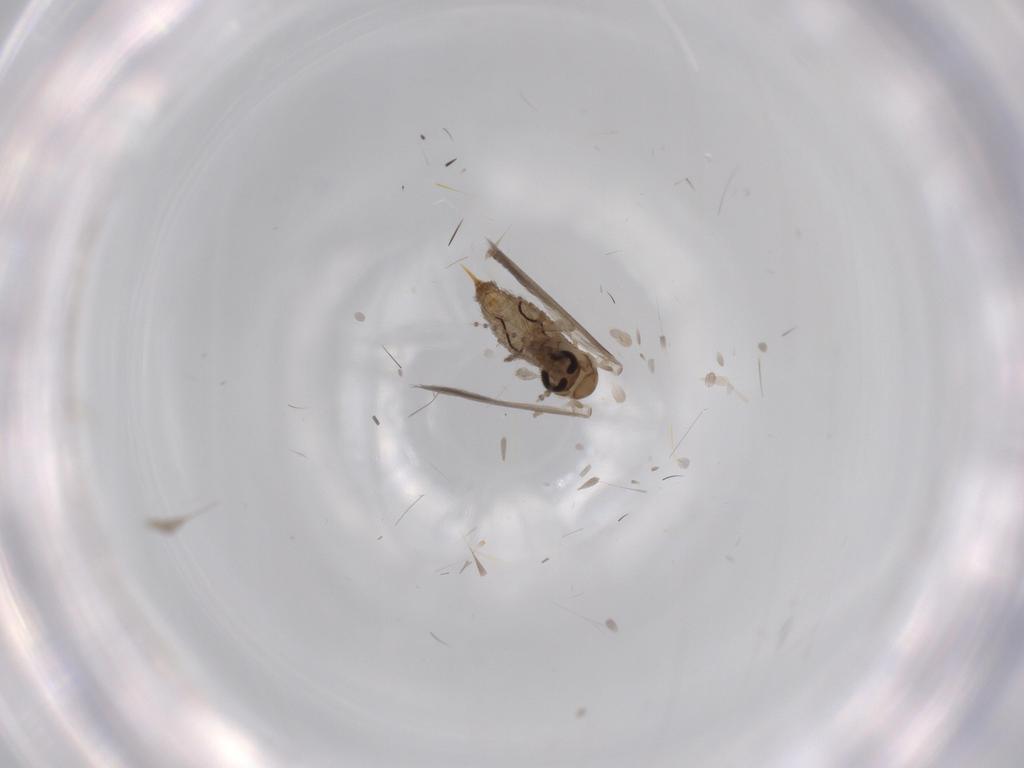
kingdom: Animalia
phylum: Arthropoda
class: Insecta
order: Diptera
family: Psychodidae
